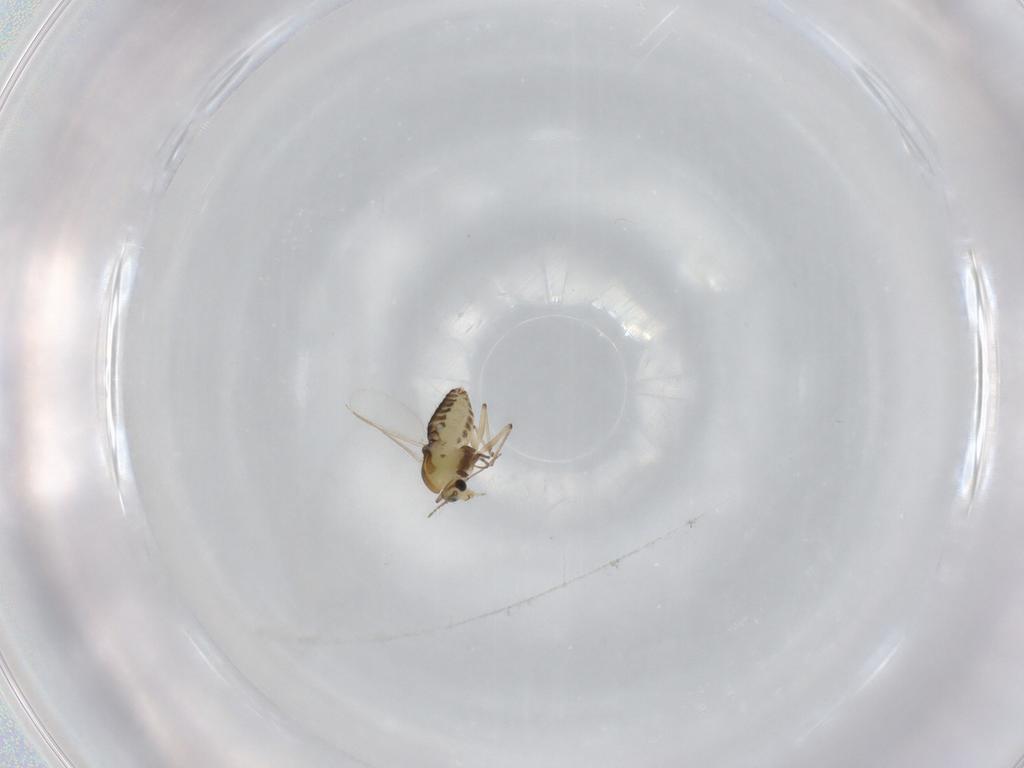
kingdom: Animalia
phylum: Arthropoda
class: Insecta
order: Diptera
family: Chironomidae
